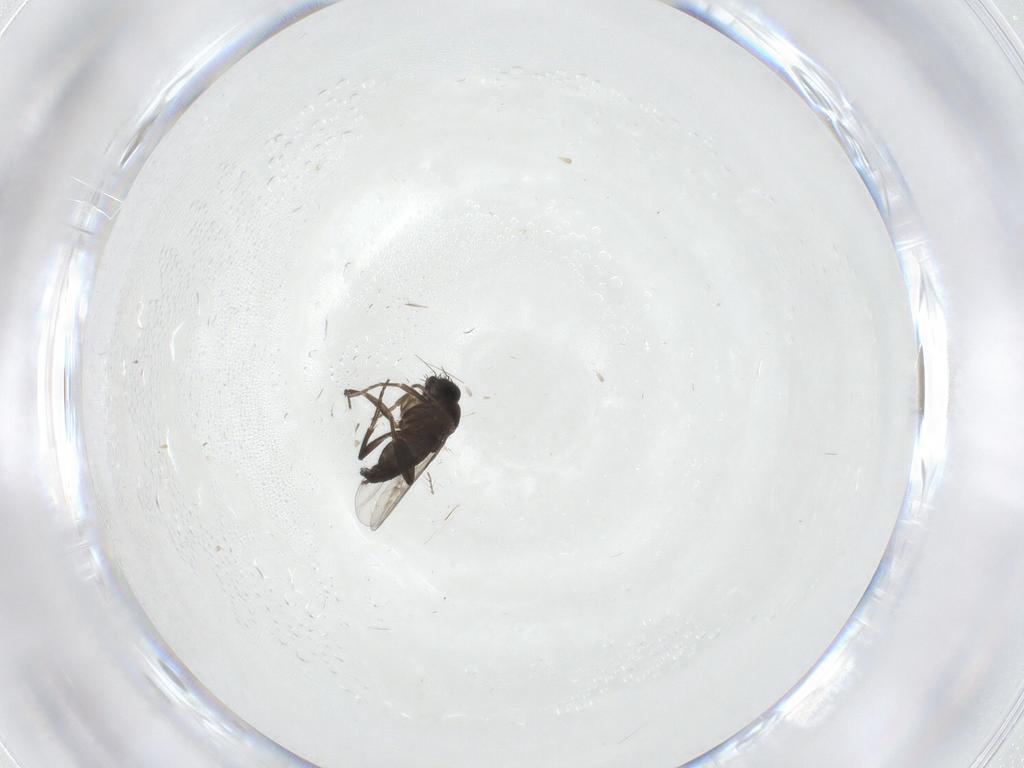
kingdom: Animalia
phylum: Arthropoda
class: Insecta
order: Diptera
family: Phoridae
